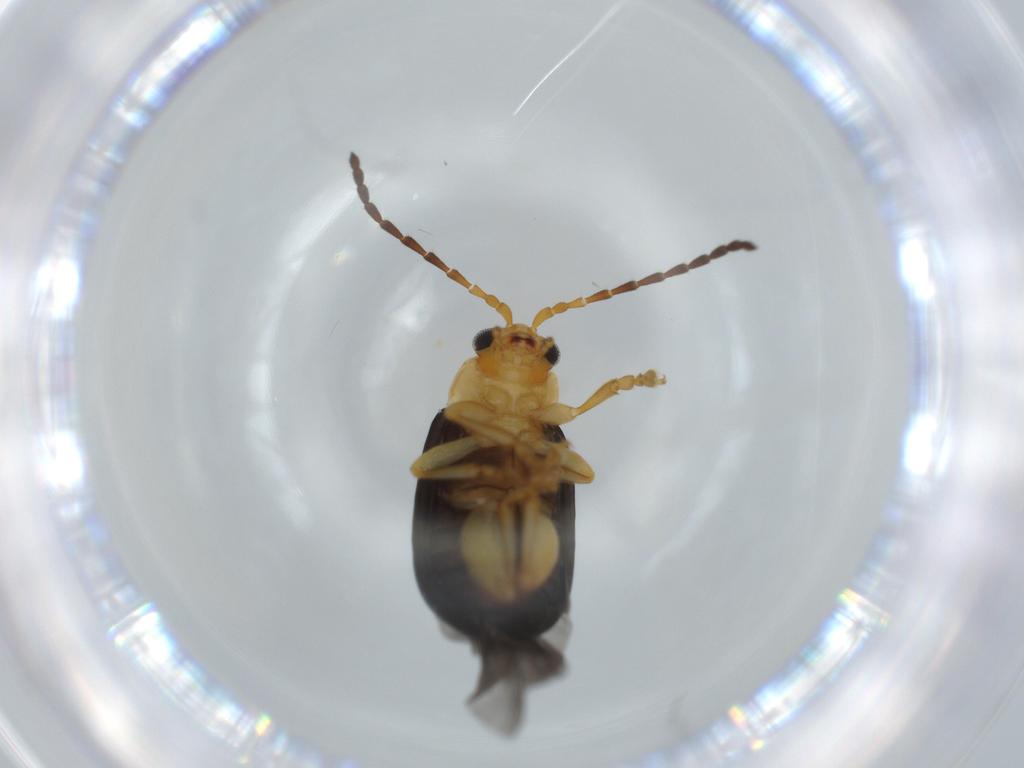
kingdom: Animalia
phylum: Arthropoda
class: Insecta
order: Coleoptera
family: Chrysomelidae
